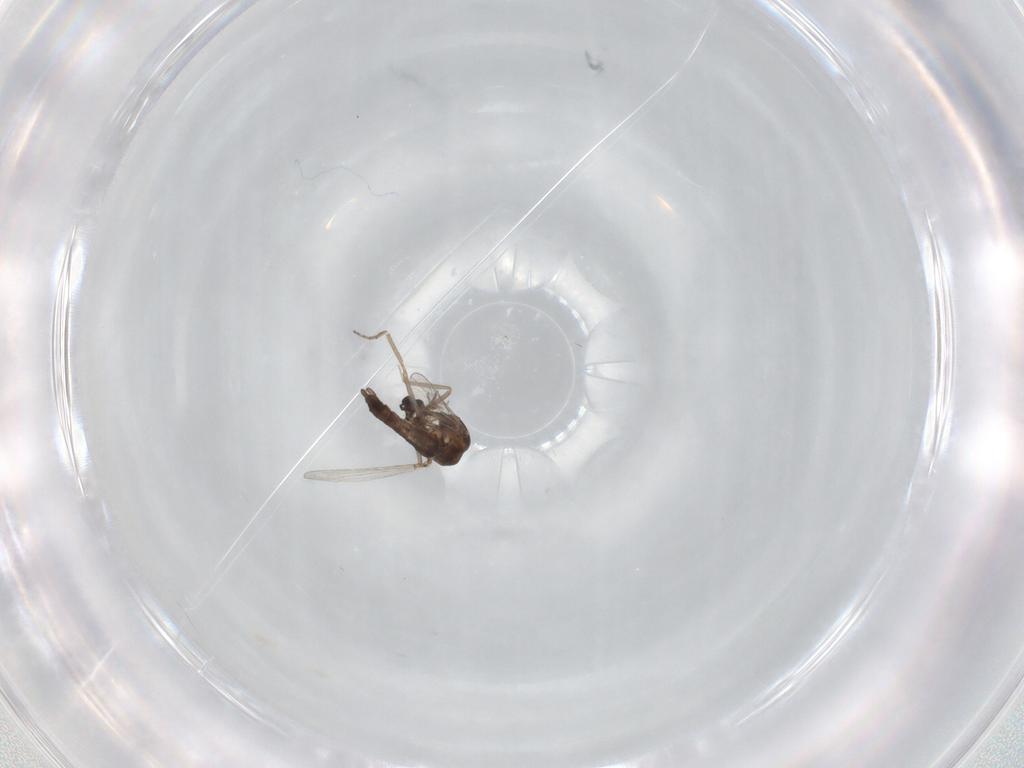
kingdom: Animalia
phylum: Arthropoda
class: Insecta
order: Diptera
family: Ceratopogonidae
